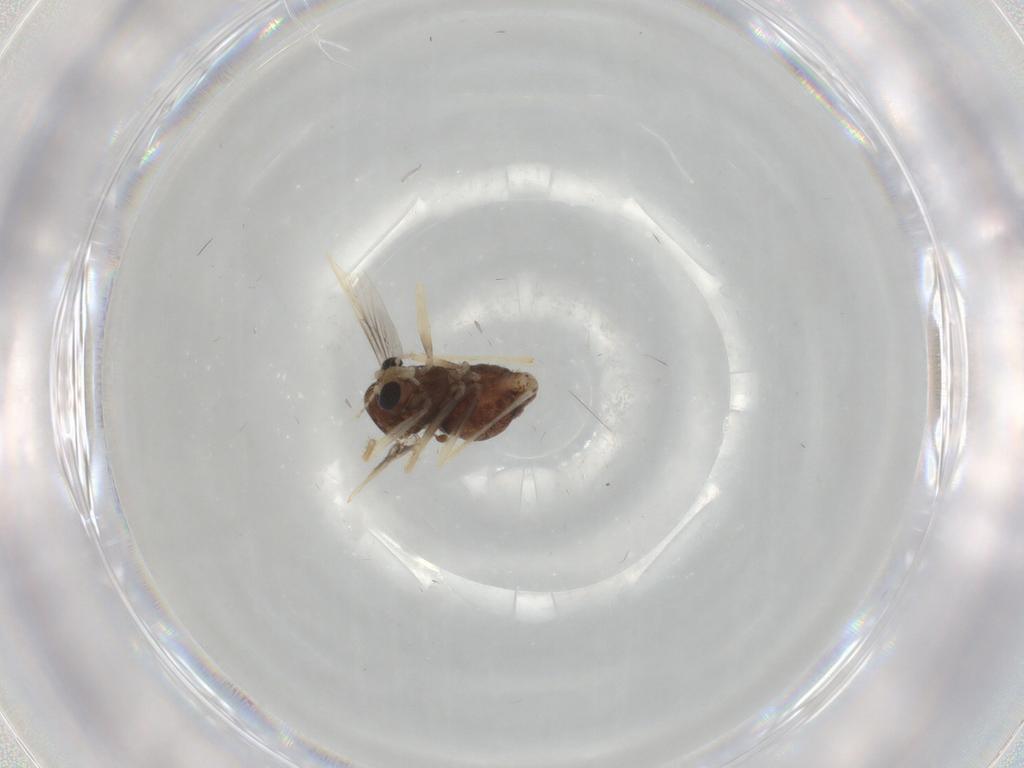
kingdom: Animalia
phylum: Arthropoda
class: Insecta
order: Diptera
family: Chironomidae
